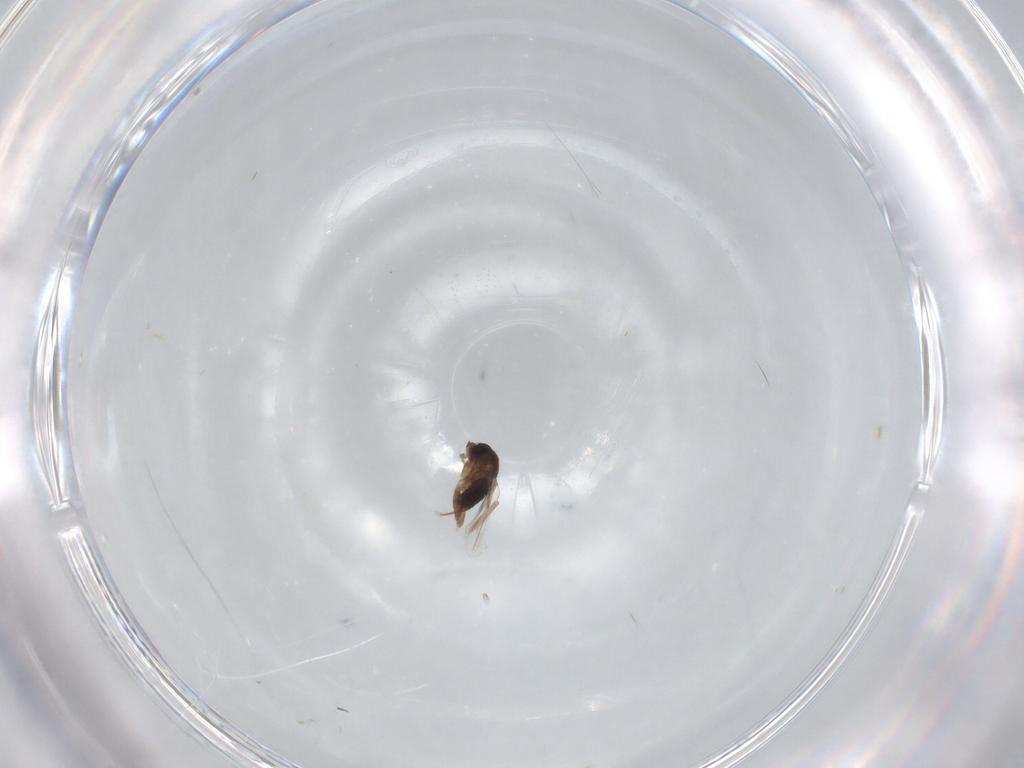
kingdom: Animalia
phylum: Arthropoda
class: Insecta
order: Diptera
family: Phoridae
